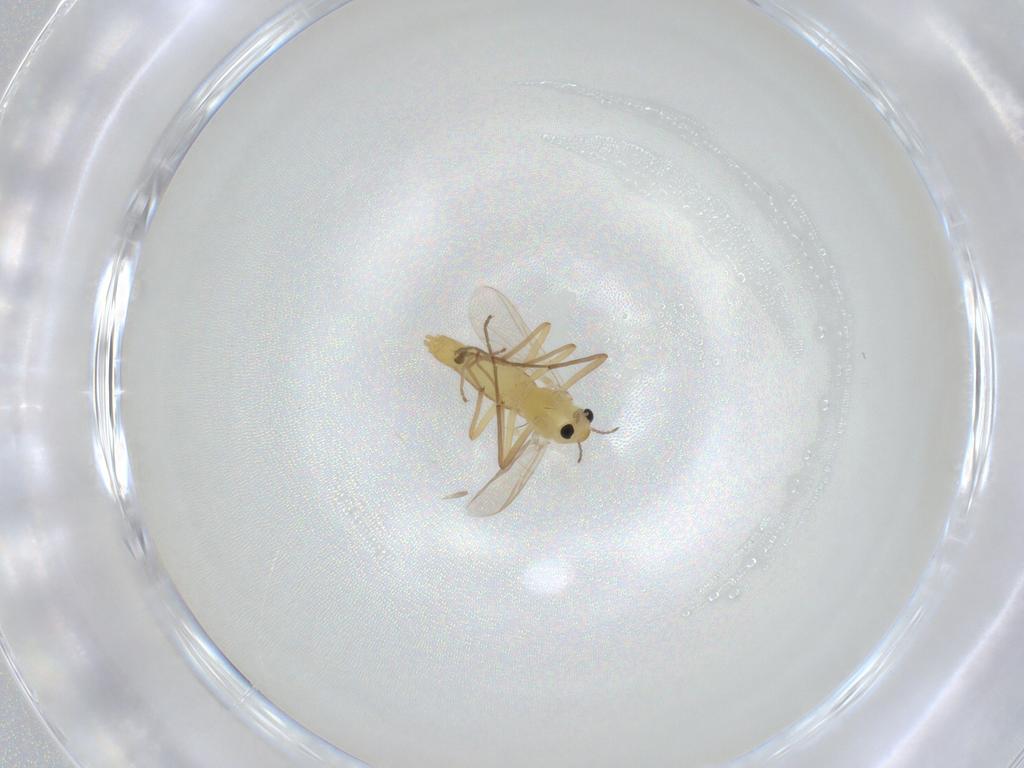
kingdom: Animalia
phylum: Arthropoda
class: Insecta
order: Diptera
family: Chironomidae
